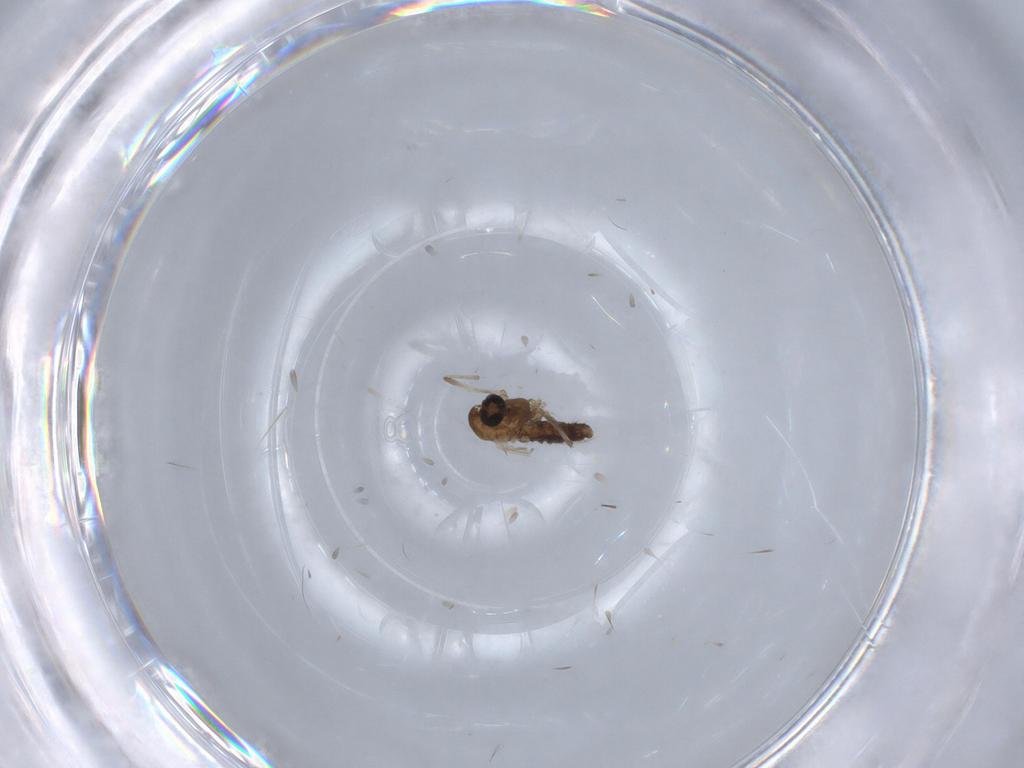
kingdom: Animalia
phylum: Arthropoda
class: Insecta
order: Diptera
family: Chironomidae
